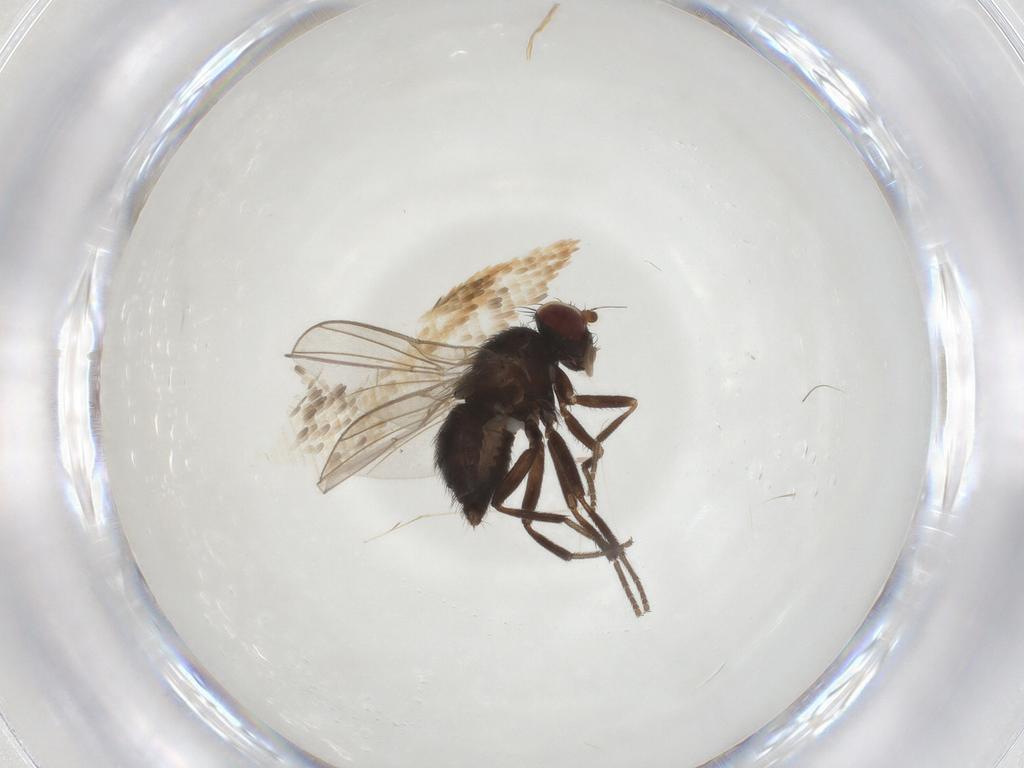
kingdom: Animalia
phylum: Arthropoda
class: Insecta
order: Diptera
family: Agromyzidae
